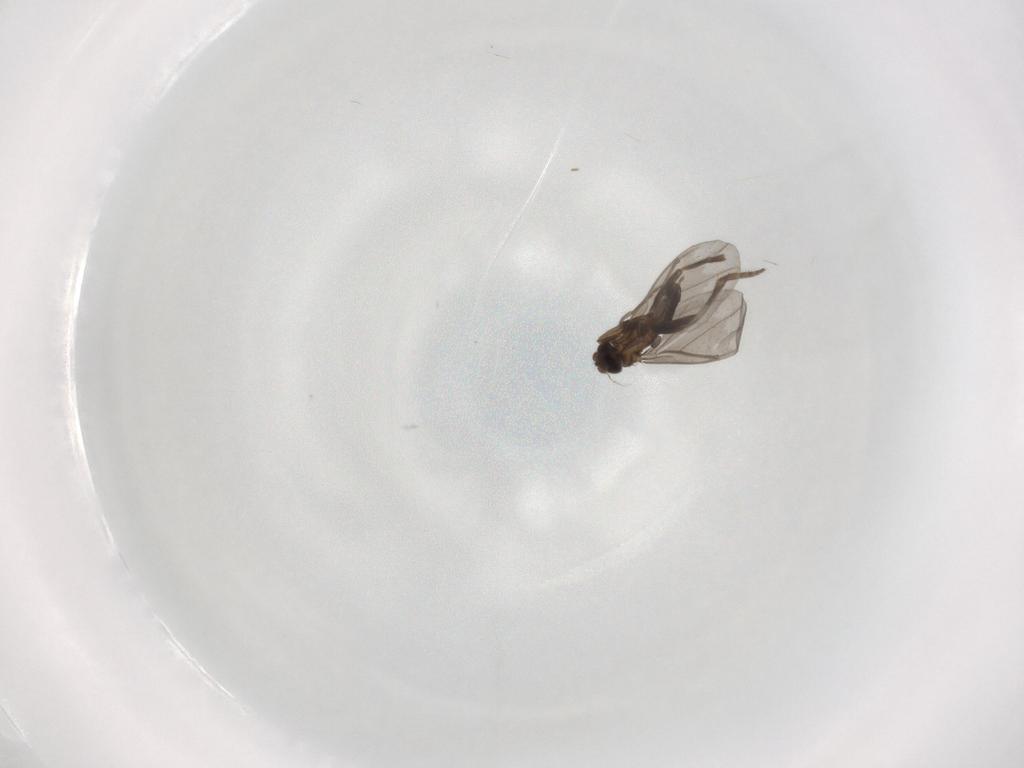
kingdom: Animalia
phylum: Arthropoda
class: Insecta
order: Diptera
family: Phoridae
